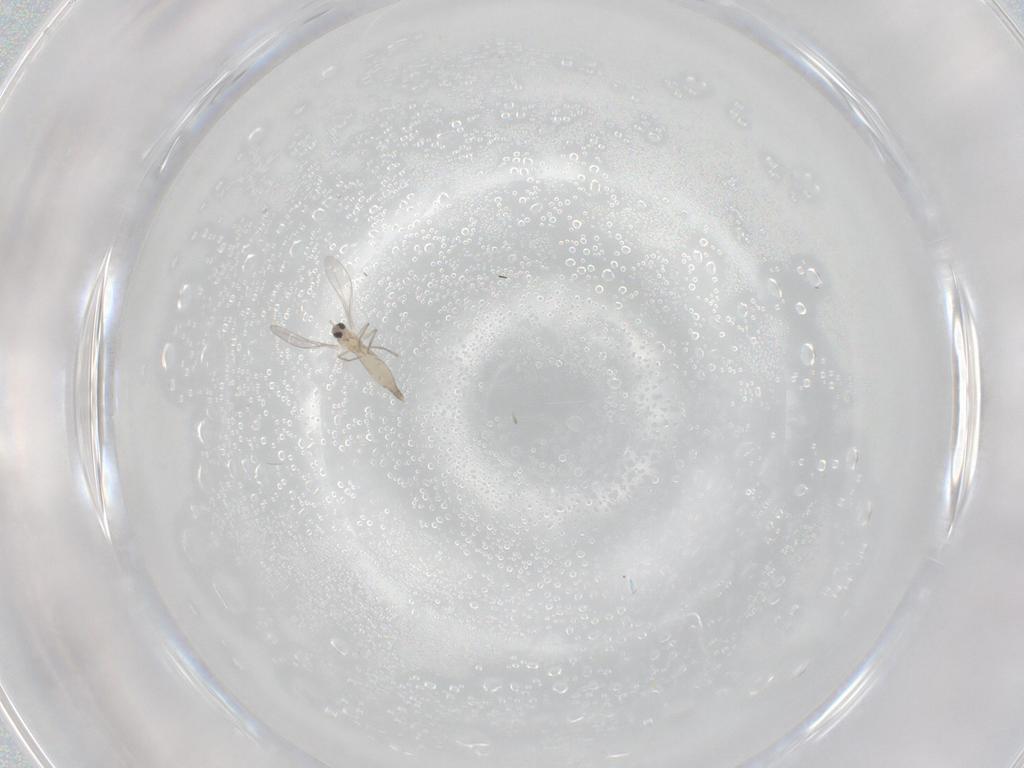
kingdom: Animalia
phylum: Arthropoda
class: Insecta
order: Diptera
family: Cecidomyiidae
